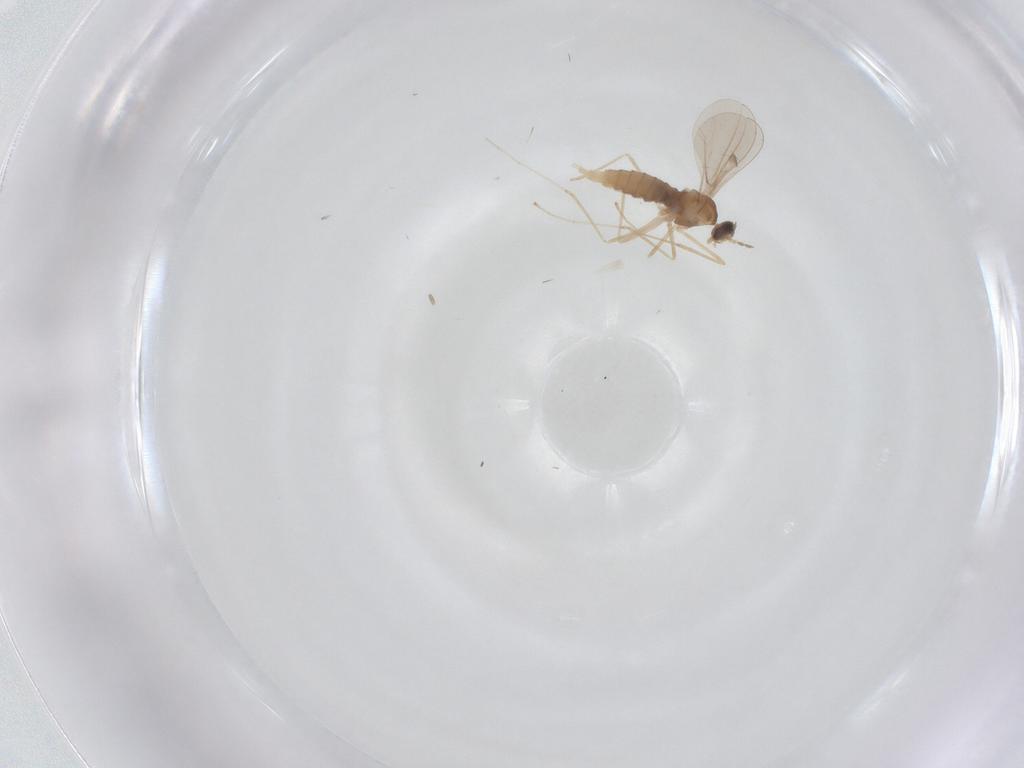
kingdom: Animalia
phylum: Arthropoda
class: Insecta
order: Diptera
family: Cecidomyiidae
